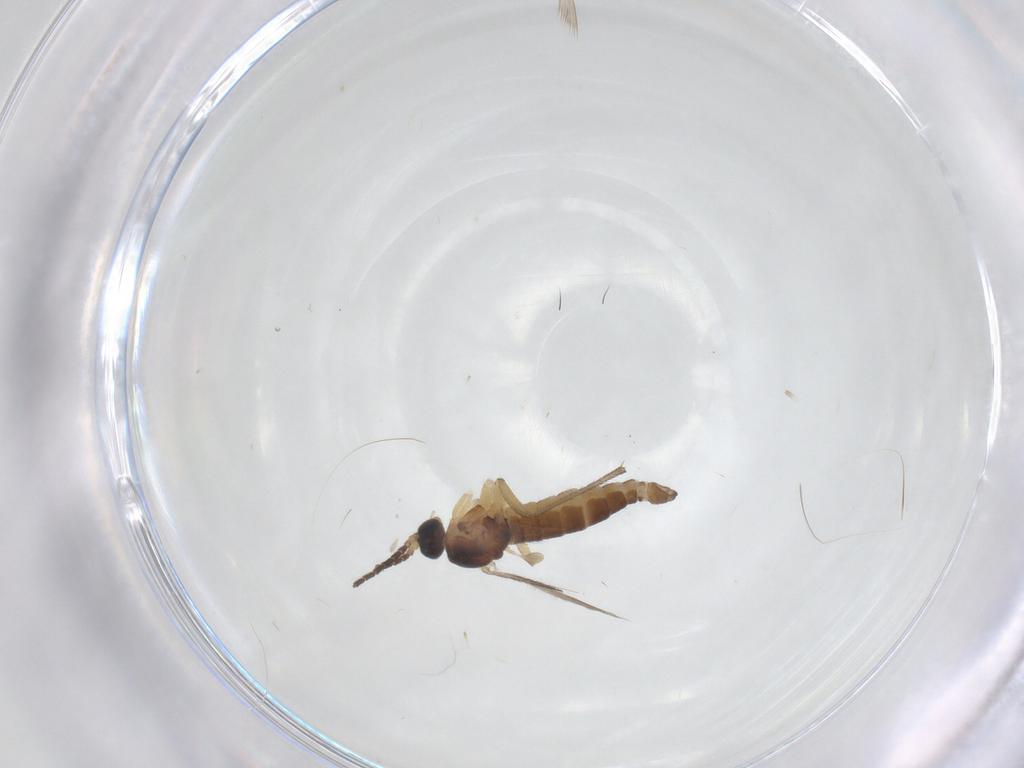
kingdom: Animalia
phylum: Arthropoda
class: Insecta
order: Diptera
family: Sciaridae
